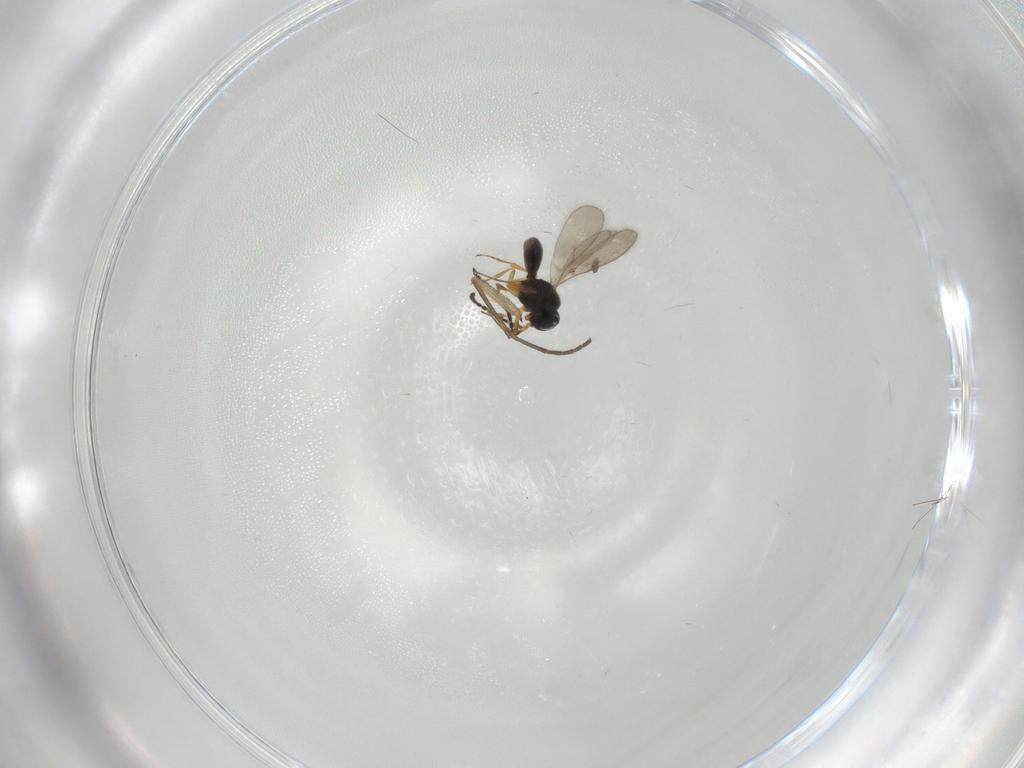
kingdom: Animalia
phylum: Arthropoda
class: Insecta
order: Hymenoptera
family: Scelionidae
